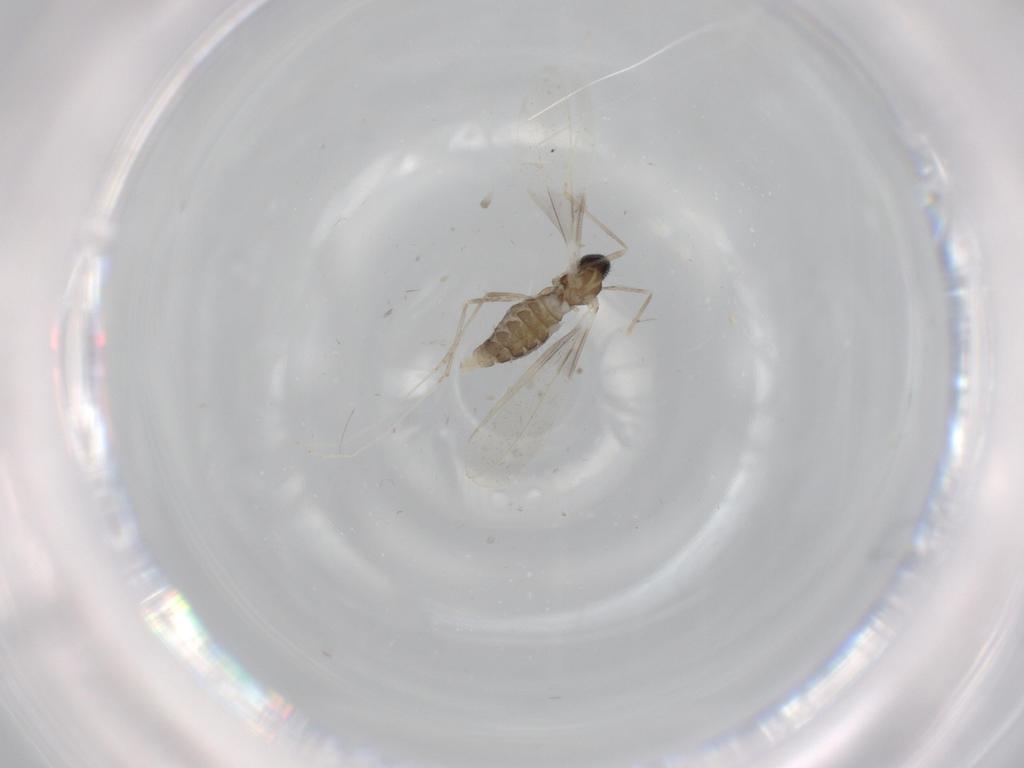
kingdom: Animalia
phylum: Arthropoda
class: Insecta
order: Diptera
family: Cecidomyiidae
